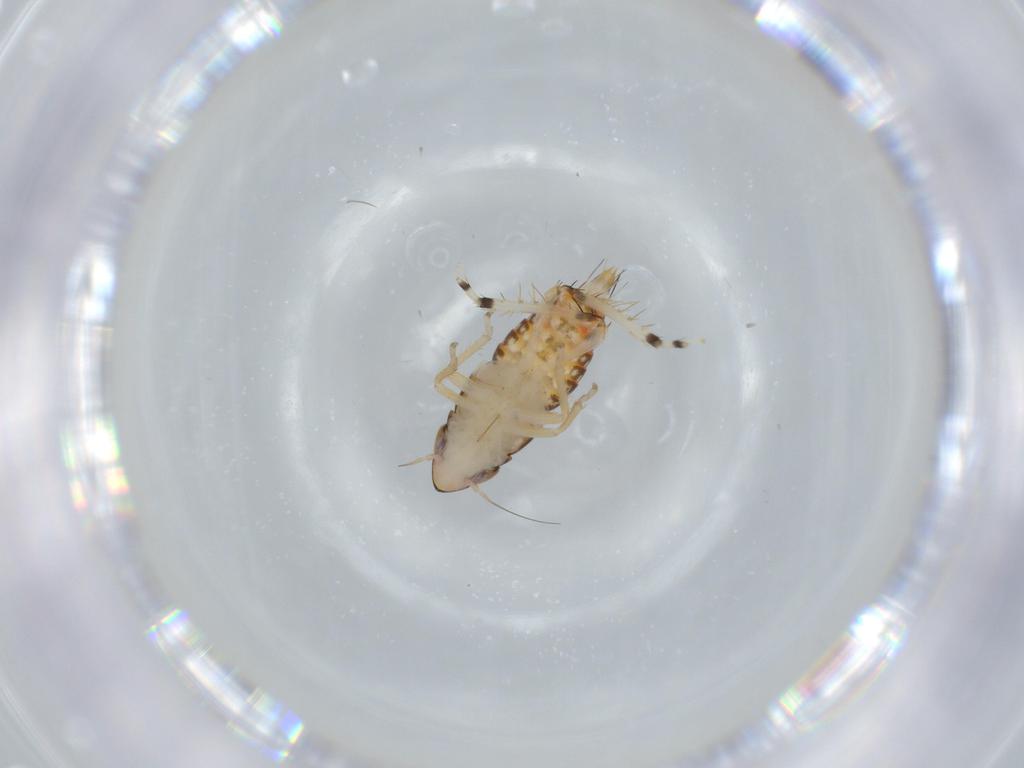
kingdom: Animalia
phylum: Arthropoda
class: Insecta
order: Hemiptera
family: Cicadellidae
